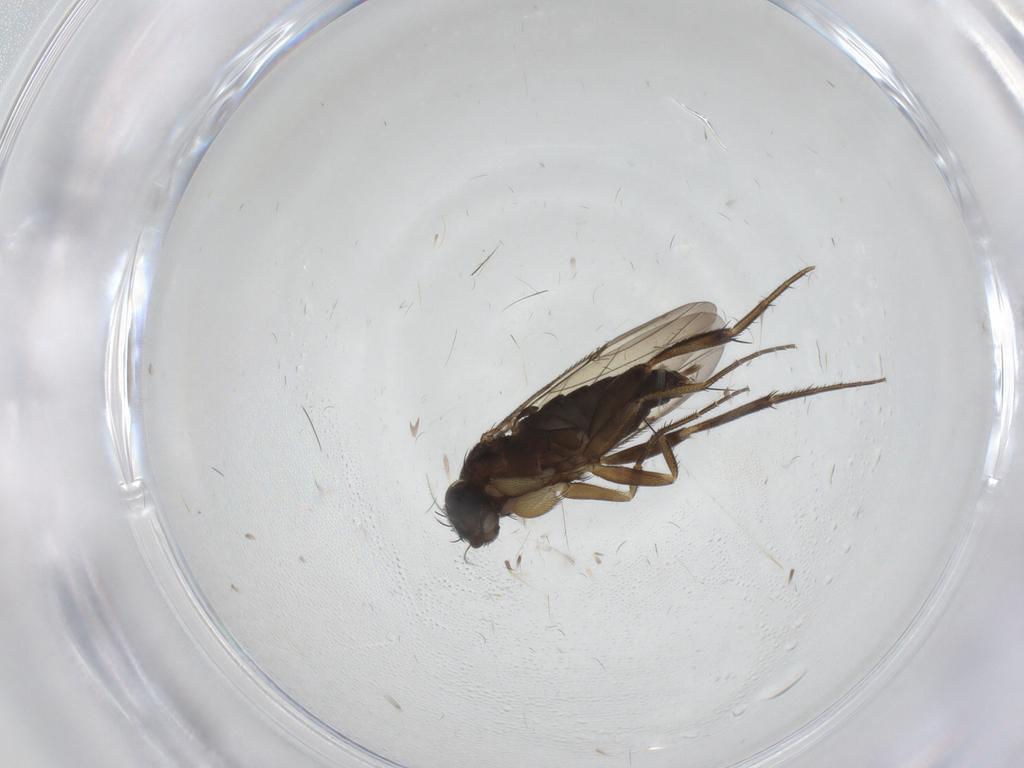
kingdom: Animalia
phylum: Arthropoda
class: Insecta
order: Diptera
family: Phoridae
